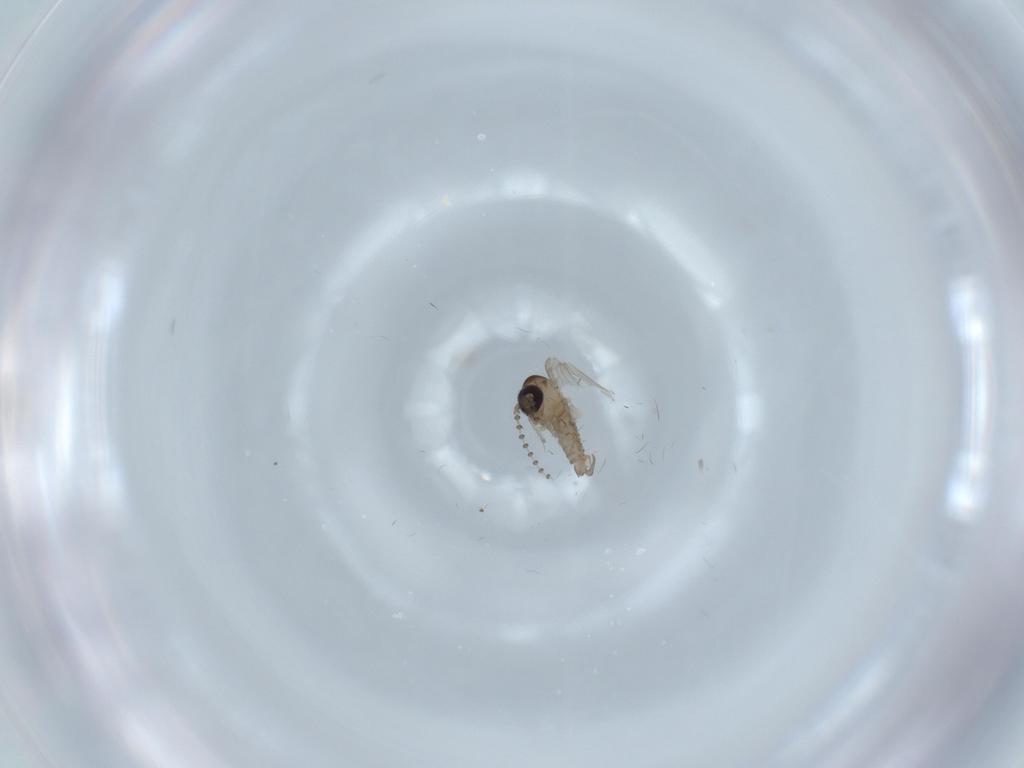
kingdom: Animalia
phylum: Arthropoda
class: Insecta
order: Diptera
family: Psychodidae
